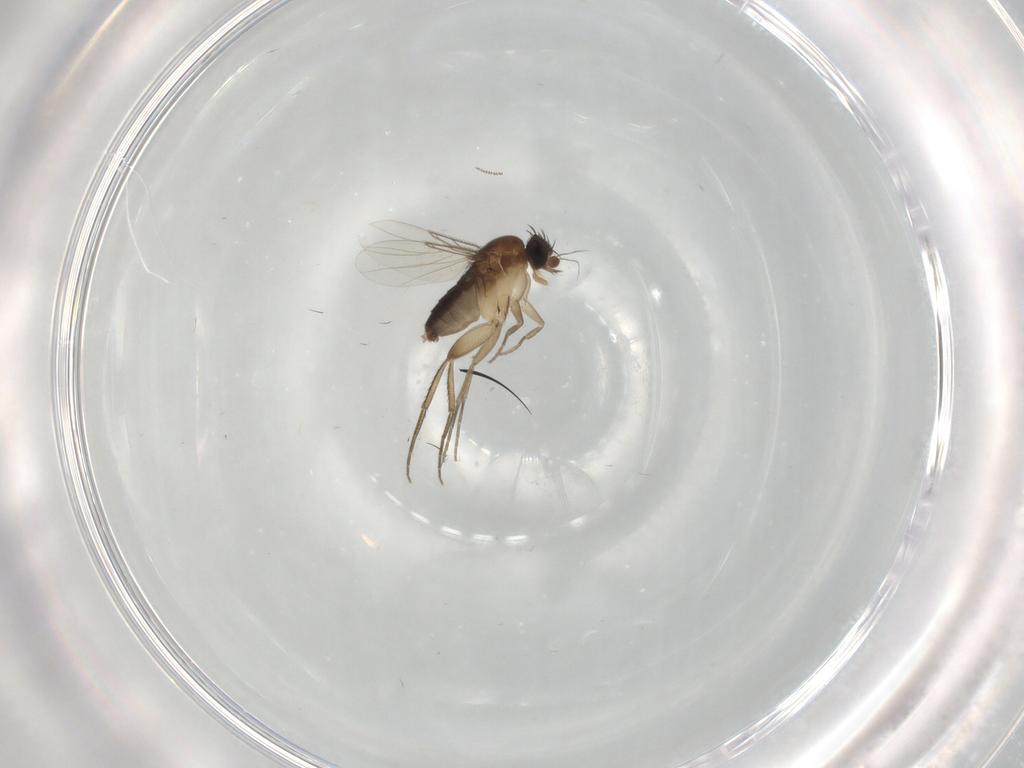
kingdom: Animalia
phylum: Arthropoda
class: Insecta
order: Diptera
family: Phoridae
